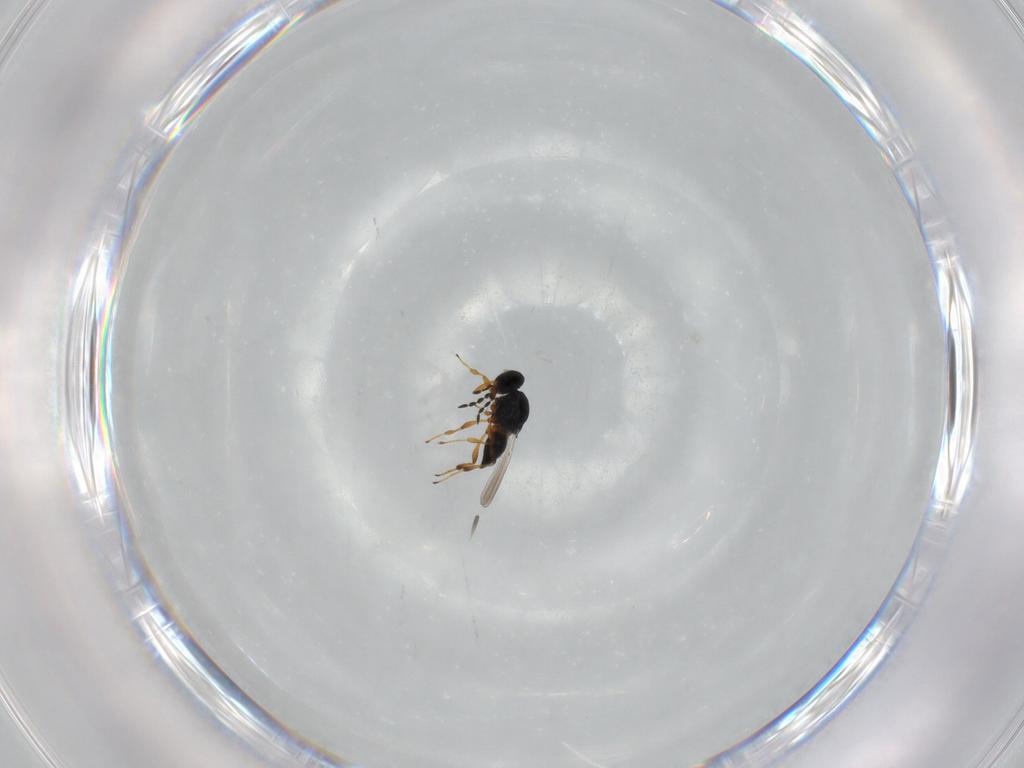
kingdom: Animalia
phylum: Arthropoda
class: Insecta
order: Hymenoptera
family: Platygastridae
